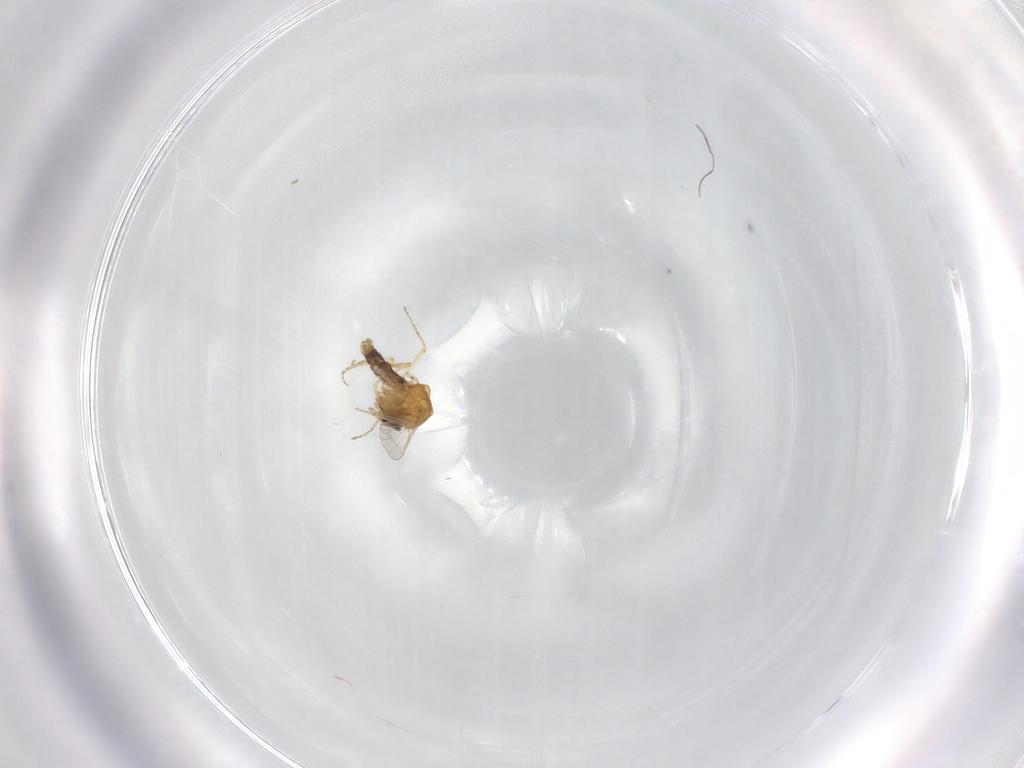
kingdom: Animalia
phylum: Arthropoda
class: Insecta
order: Diptera
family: Ceratopogonidae
